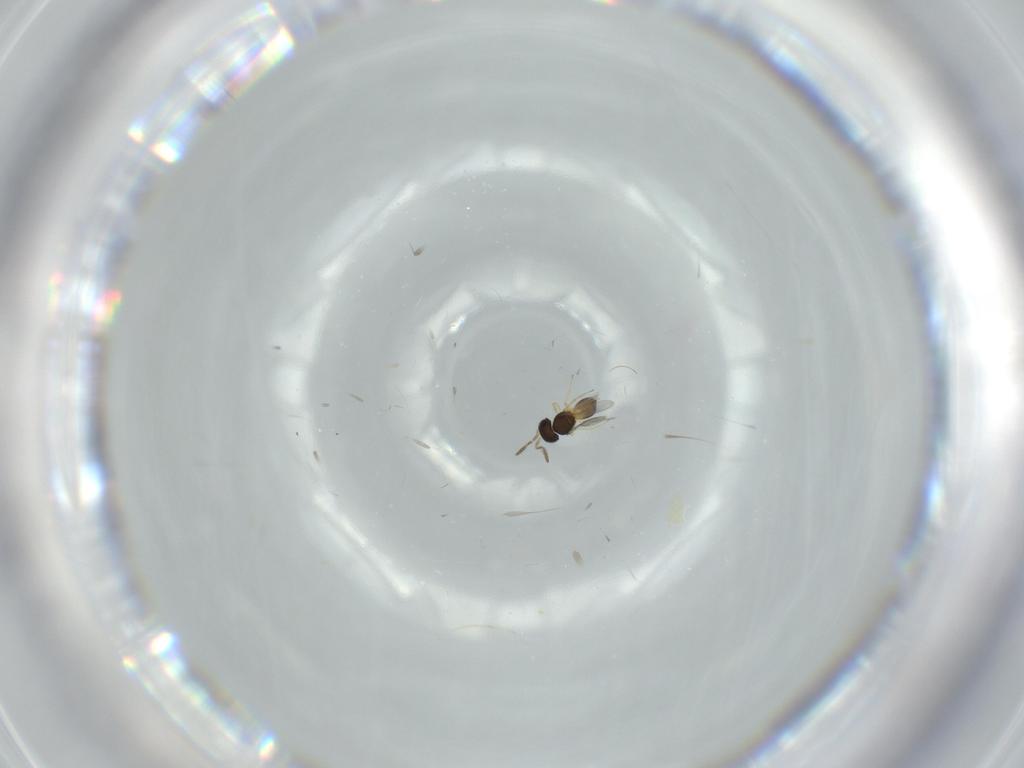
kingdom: Animalia
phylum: Arthropoda
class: Insecta
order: Hymenoptera
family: Scelionidae
